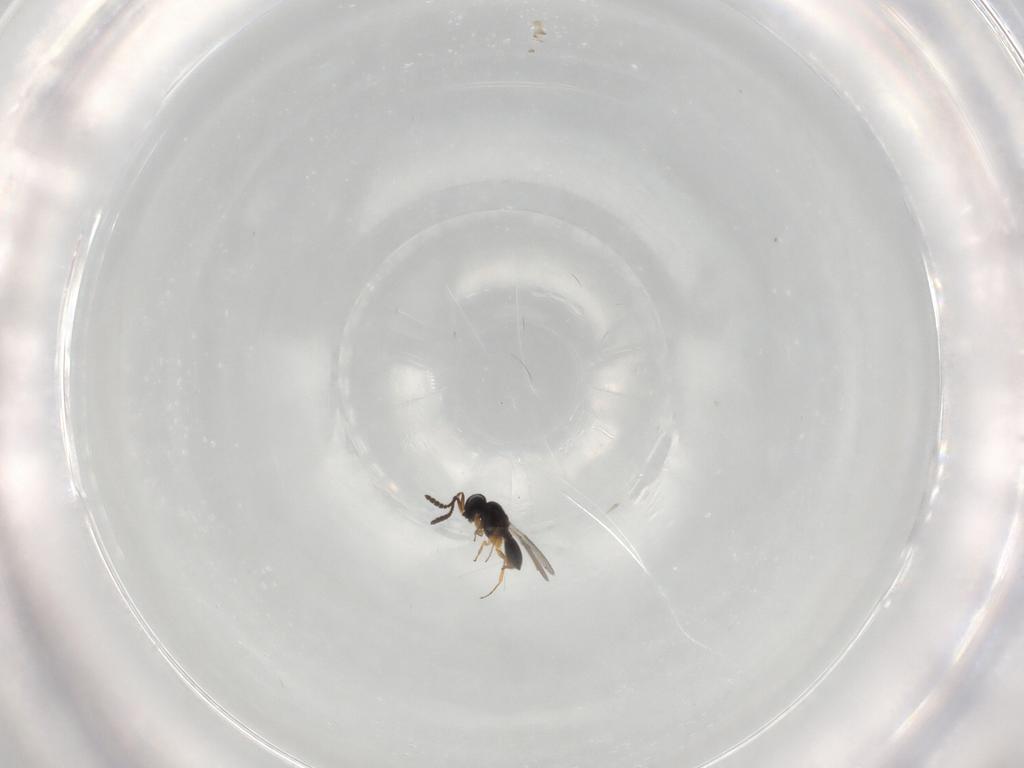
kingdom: Animalia
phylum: Arthropoda
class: Insecta
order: Hymenoptera
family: Scelionidae
